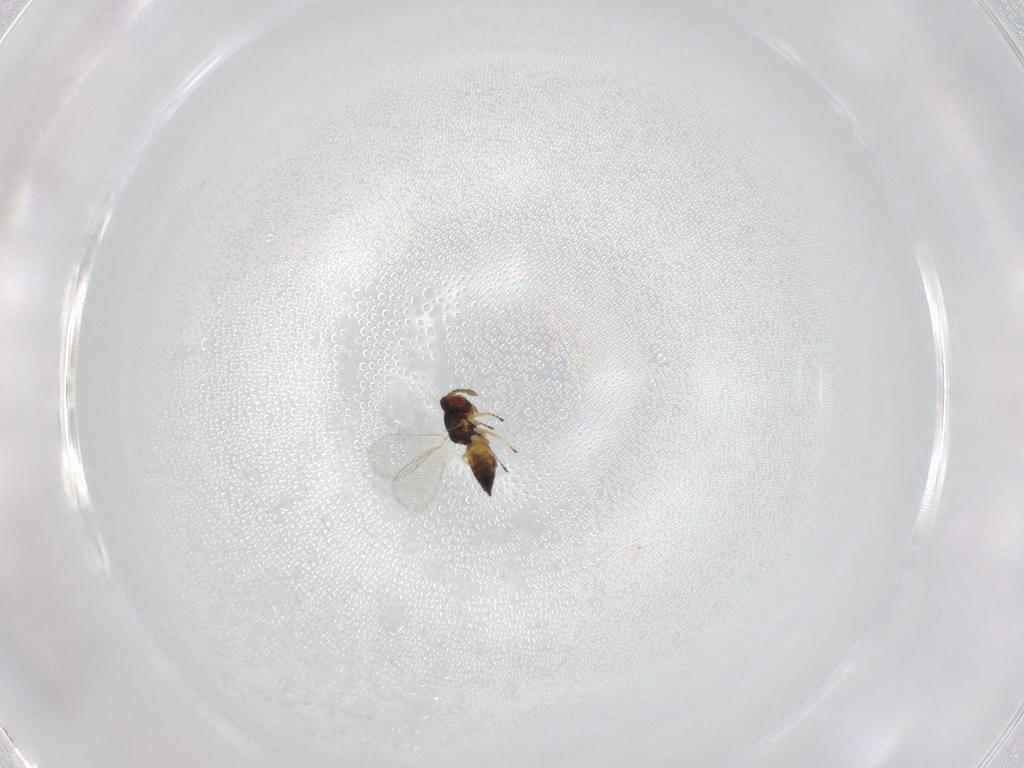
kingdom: Animalia
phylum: Arthropoda
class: Insecta
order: Hymenoptera
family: Eulophidae
